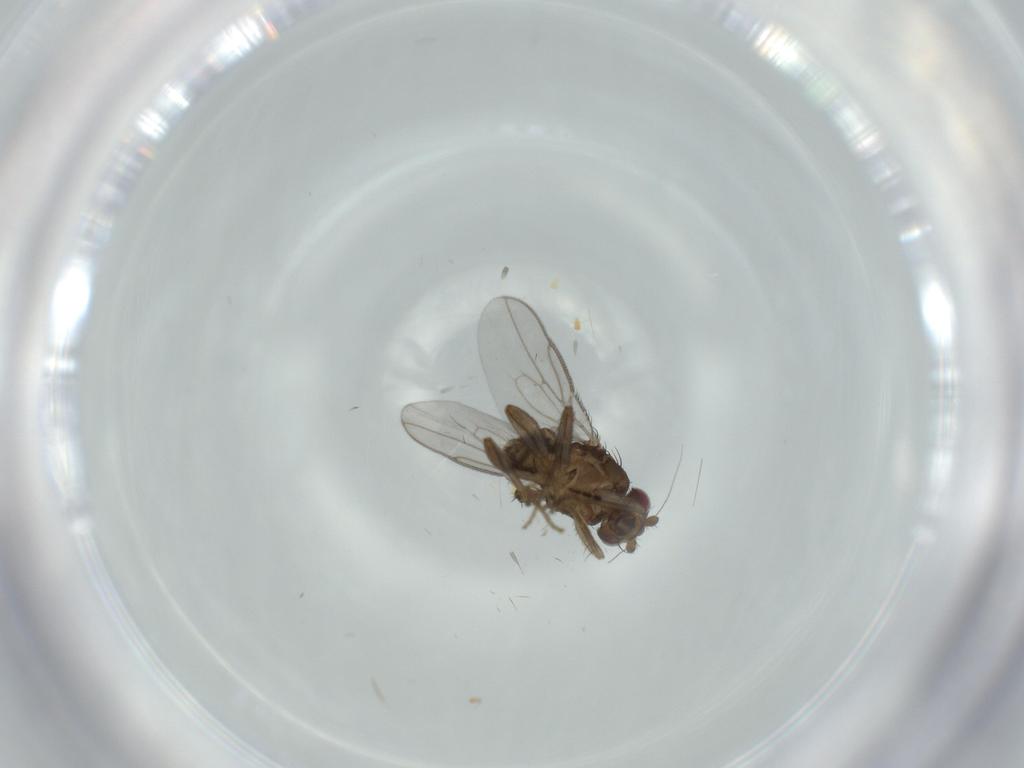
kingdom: Animalia
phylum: Arthropoda
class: Insecta
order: Diptera
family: Sphaeroceridae
